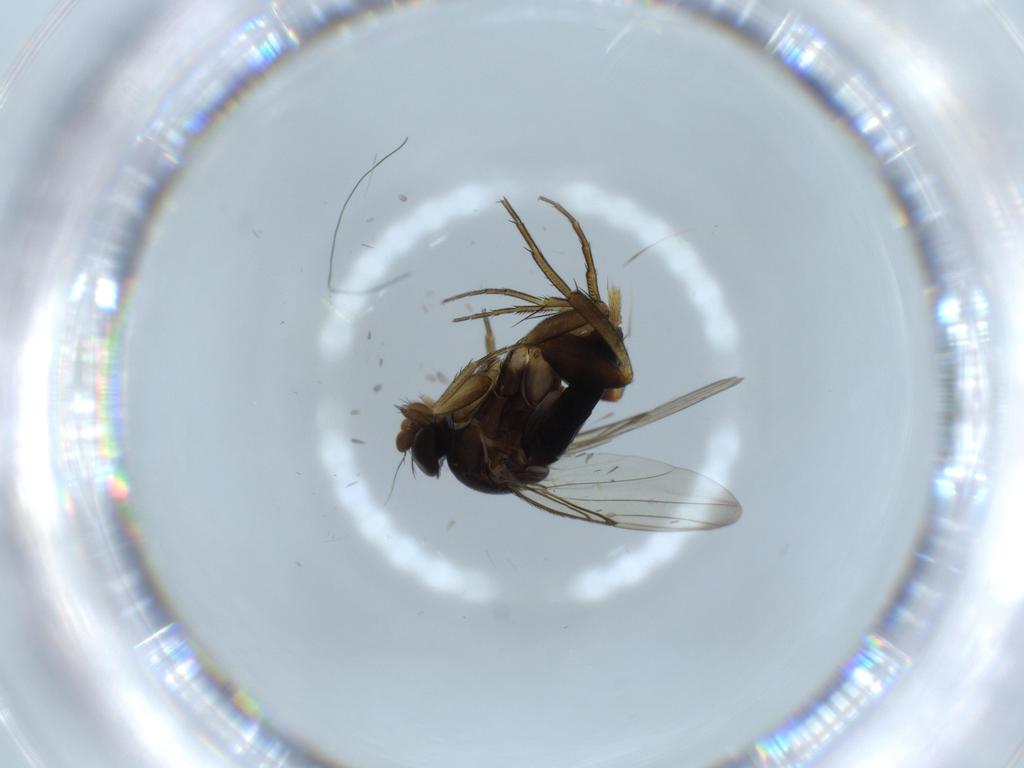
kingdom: Animalia
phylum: Arthropoda
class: Insecta
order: Diptera
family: Phoridae
